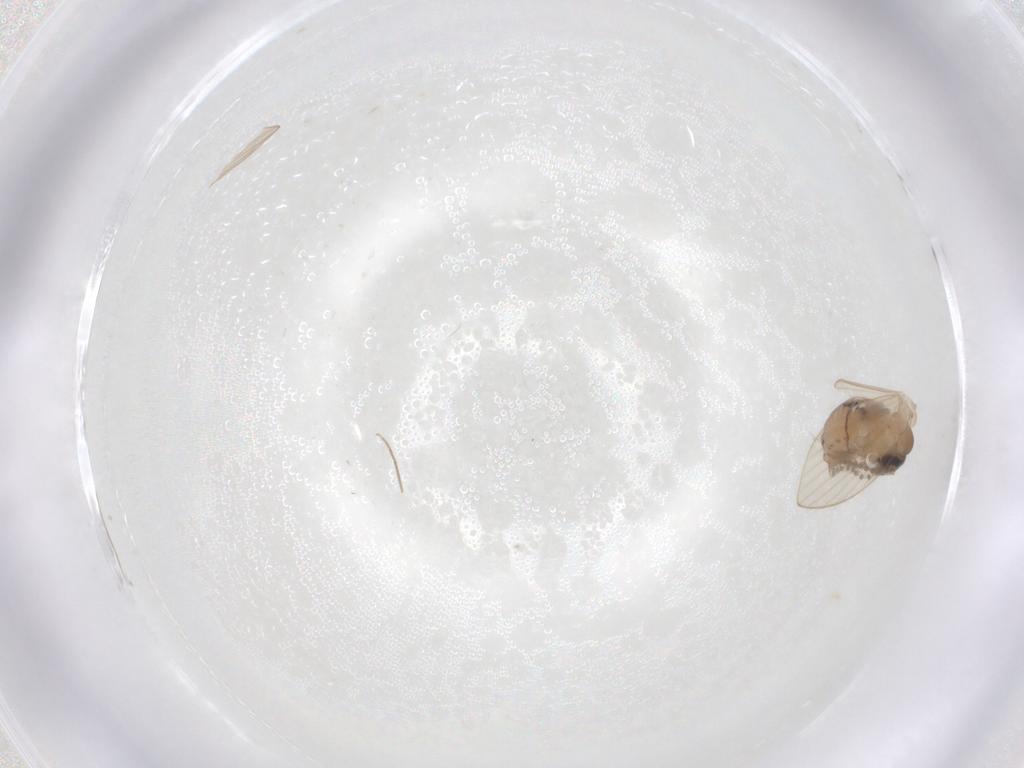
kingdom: Animalia
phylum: Arthropoda
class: Insecta
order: Diptera
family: Psychodidae
